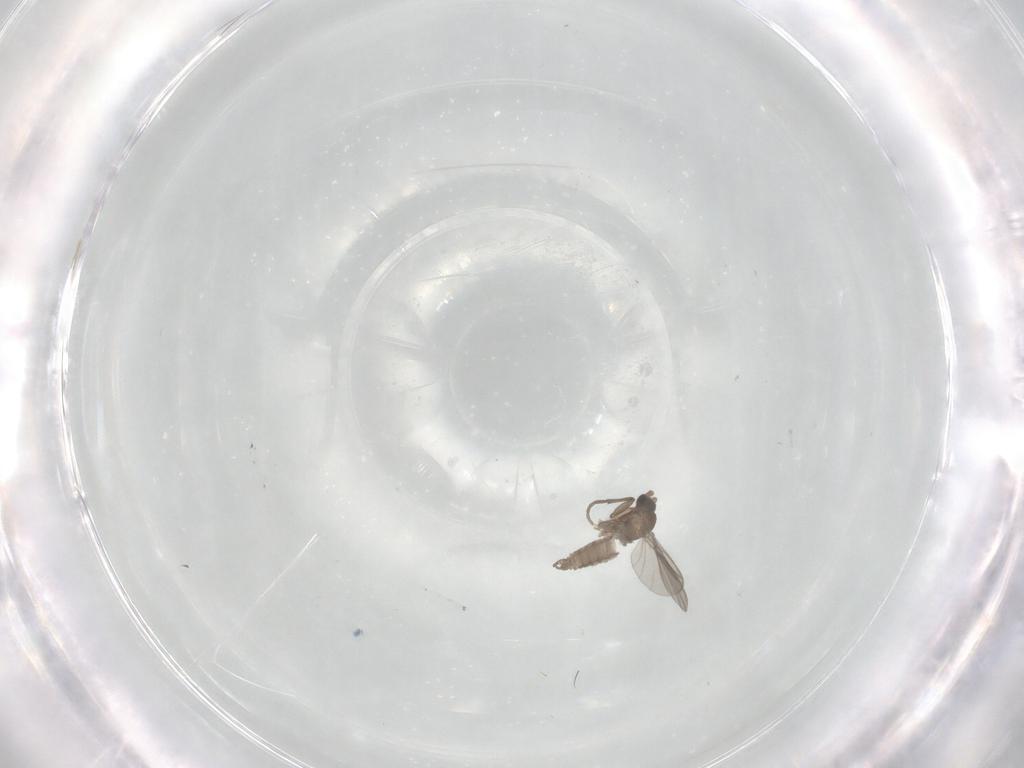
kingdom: Animalia
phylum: Arthropoda
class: Insecta
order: Diptera
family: Sciaridae
